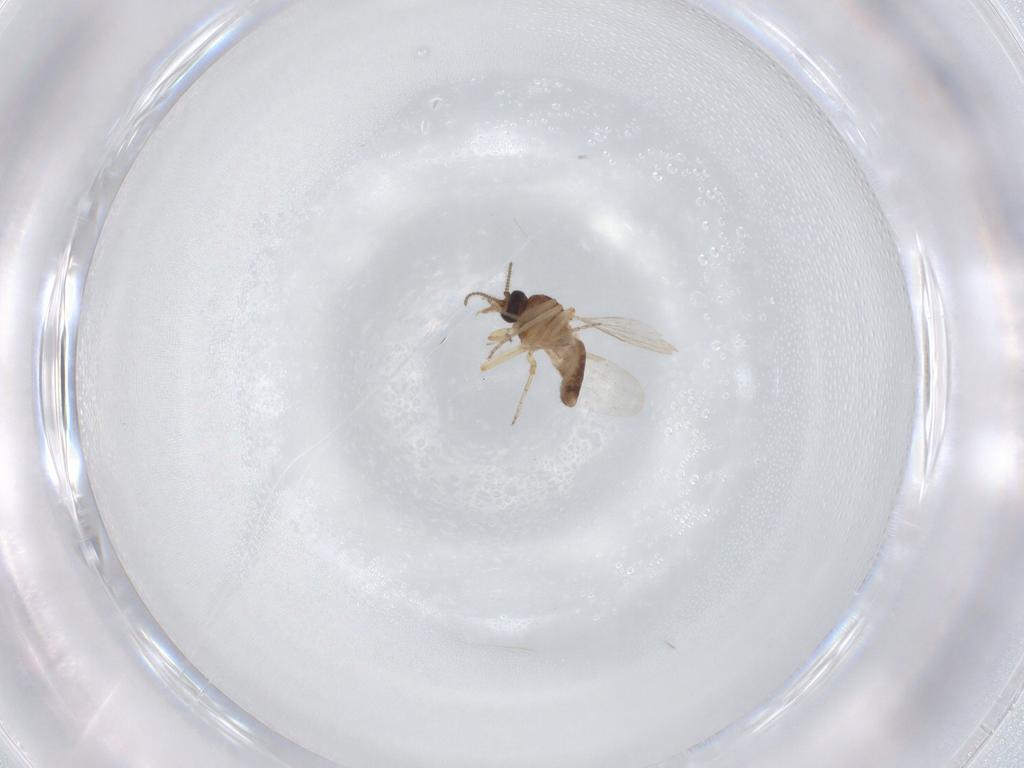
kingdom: Animalia
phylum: Arthropoda
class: Insecta
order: Diptera
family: Ceratopogonidae
